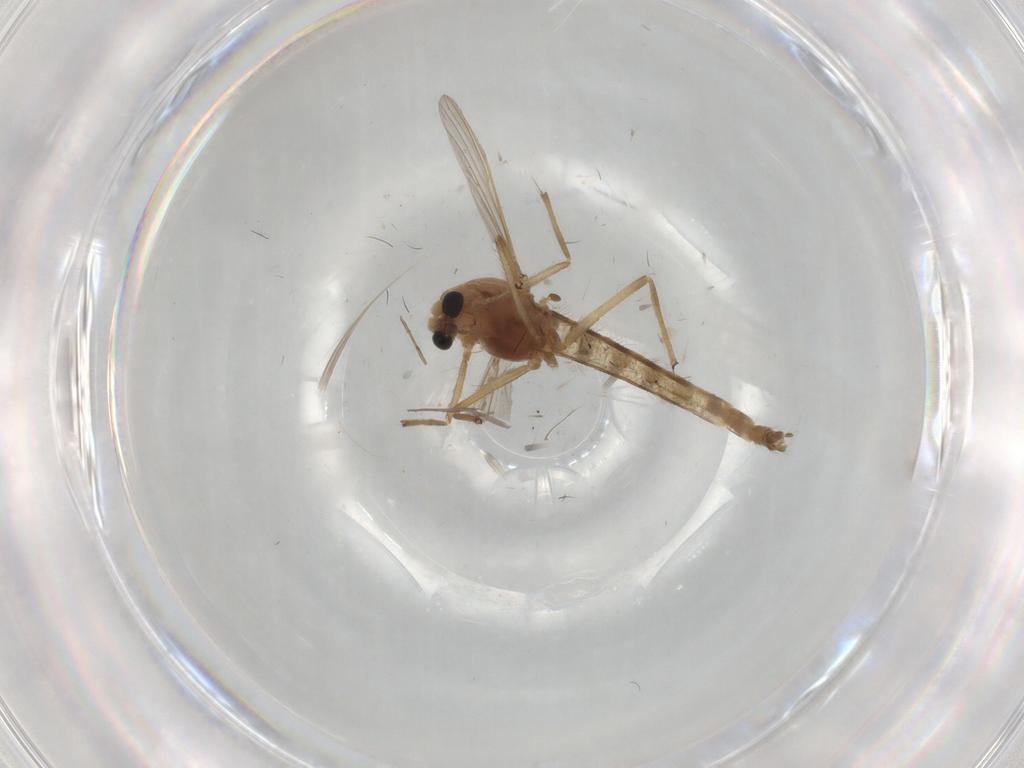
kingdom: Animalia
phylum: Arthropoda
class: Insecta
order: Diptera
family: Chironomidae
